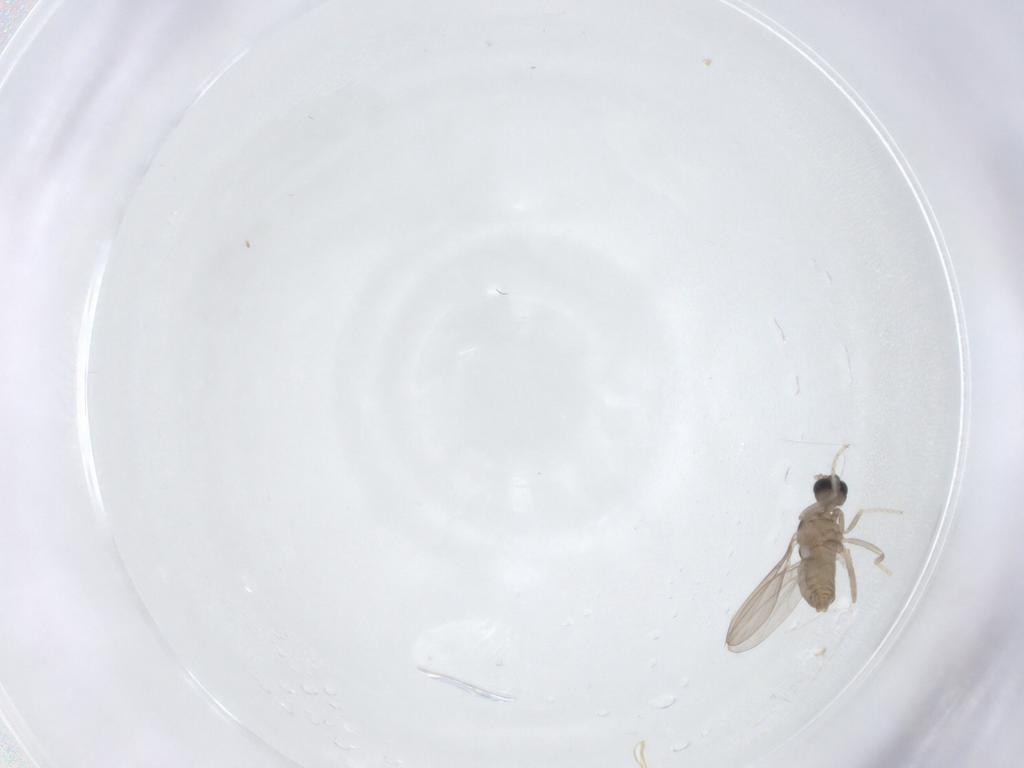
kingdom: Animalia
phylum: Arthropoda
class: Insecta
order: Diptera
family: Cecidomyiidae
